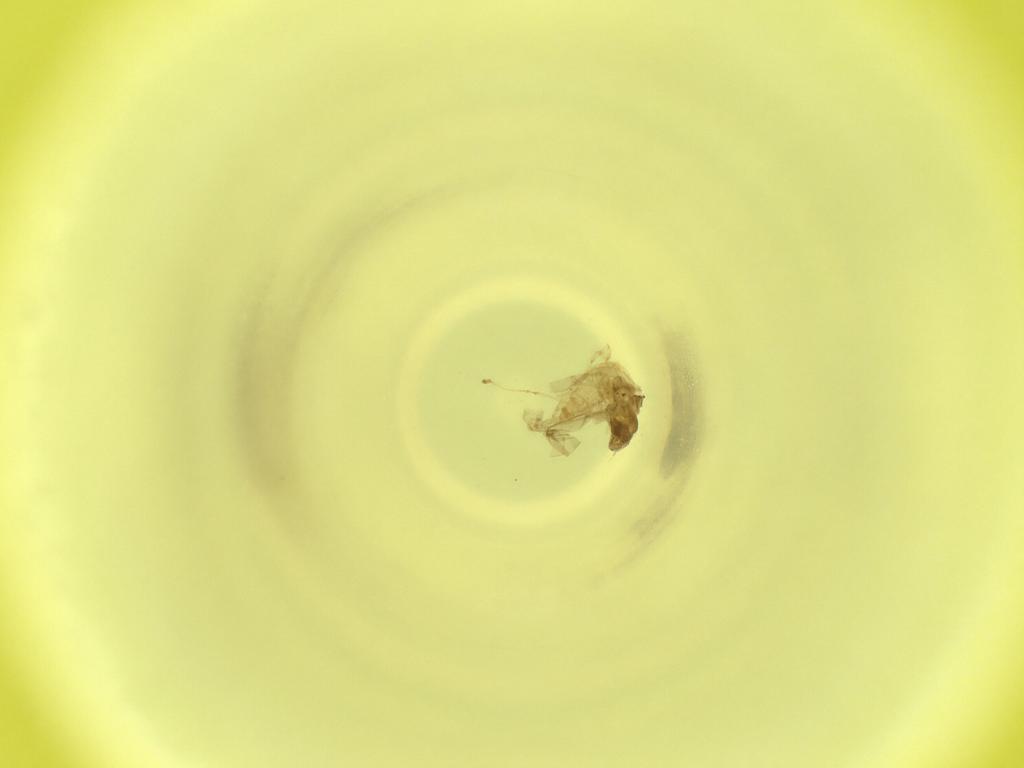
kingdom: Animalia
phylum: Arthropoda
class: Insecta
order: Diptera
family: Cecidomyiidae
